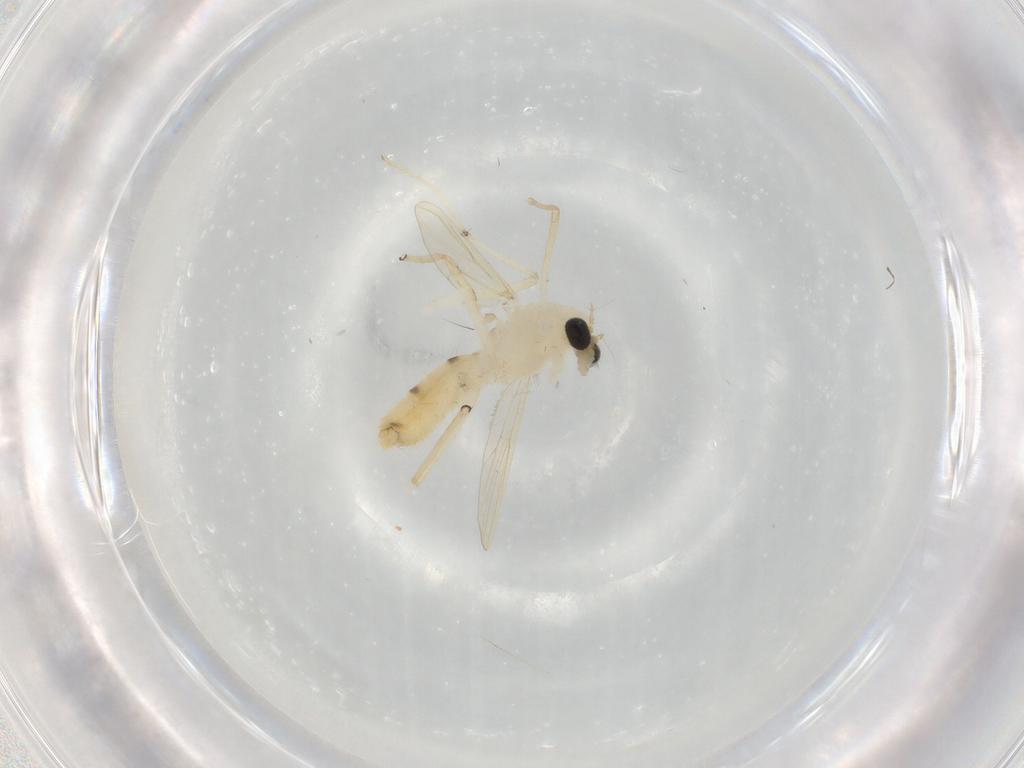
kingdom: Animalia
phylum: Arthropoda
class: Insecta
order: Diptera
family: Chironomidae
